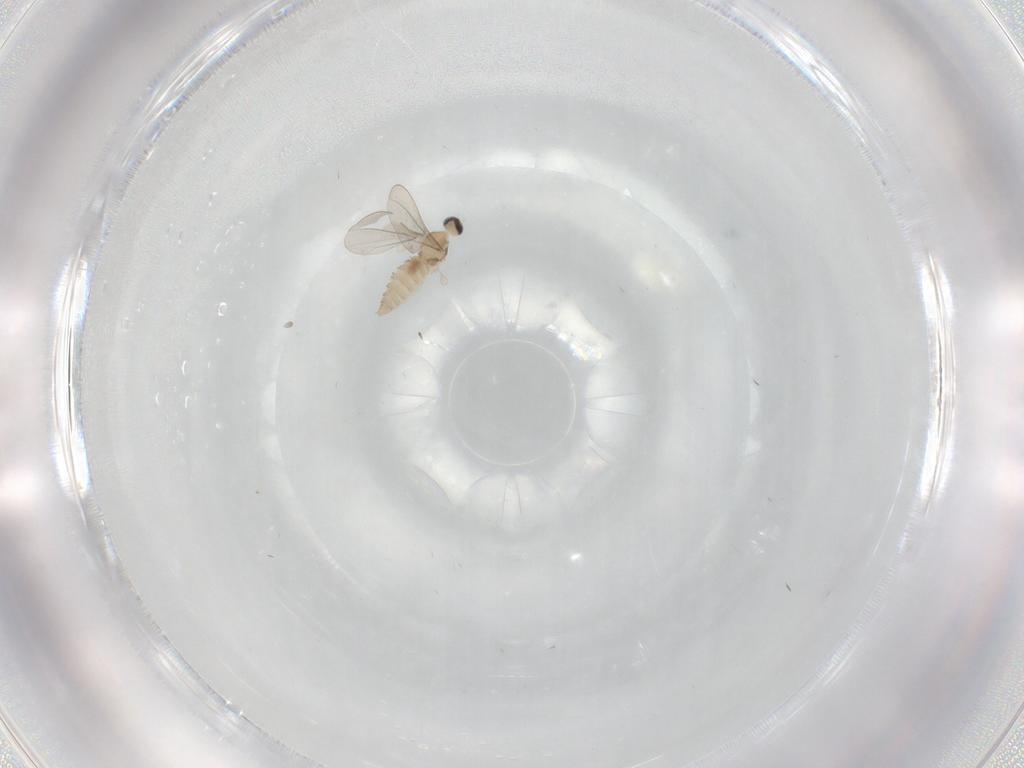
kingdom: Animalia
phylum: Arthropoda
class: Insecta
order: Diptera
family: Cecidomyiidae
